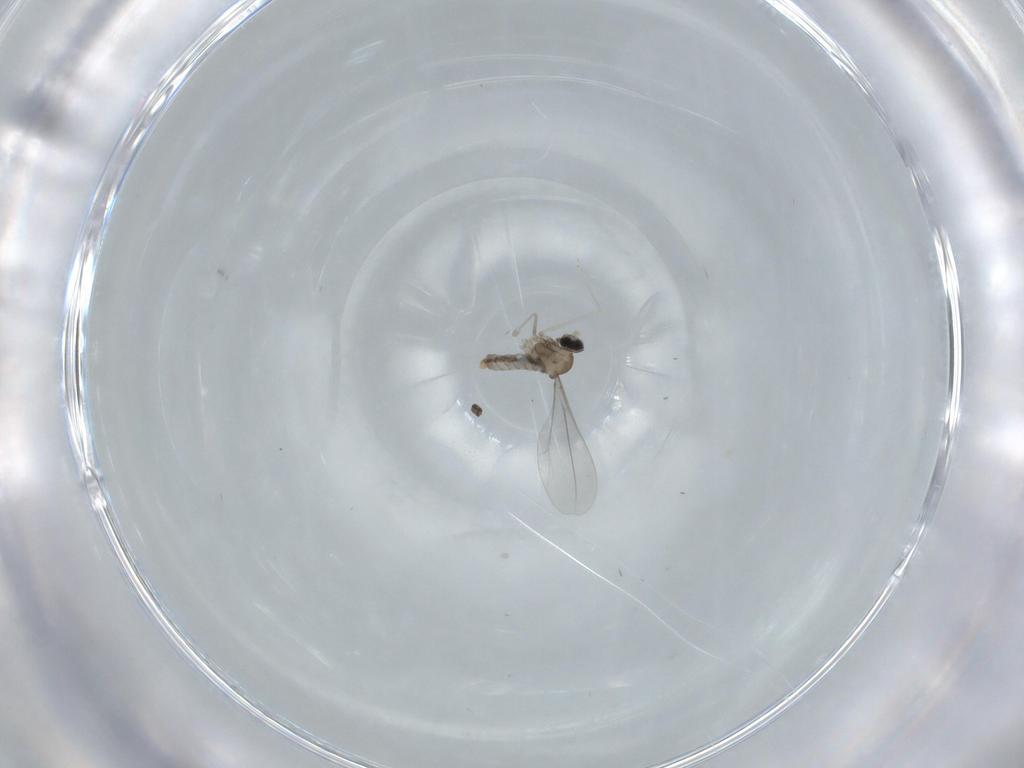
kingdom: Animalia
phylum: Arthropoda
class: Insecta
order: Diptera
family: Cecidomyiidae
